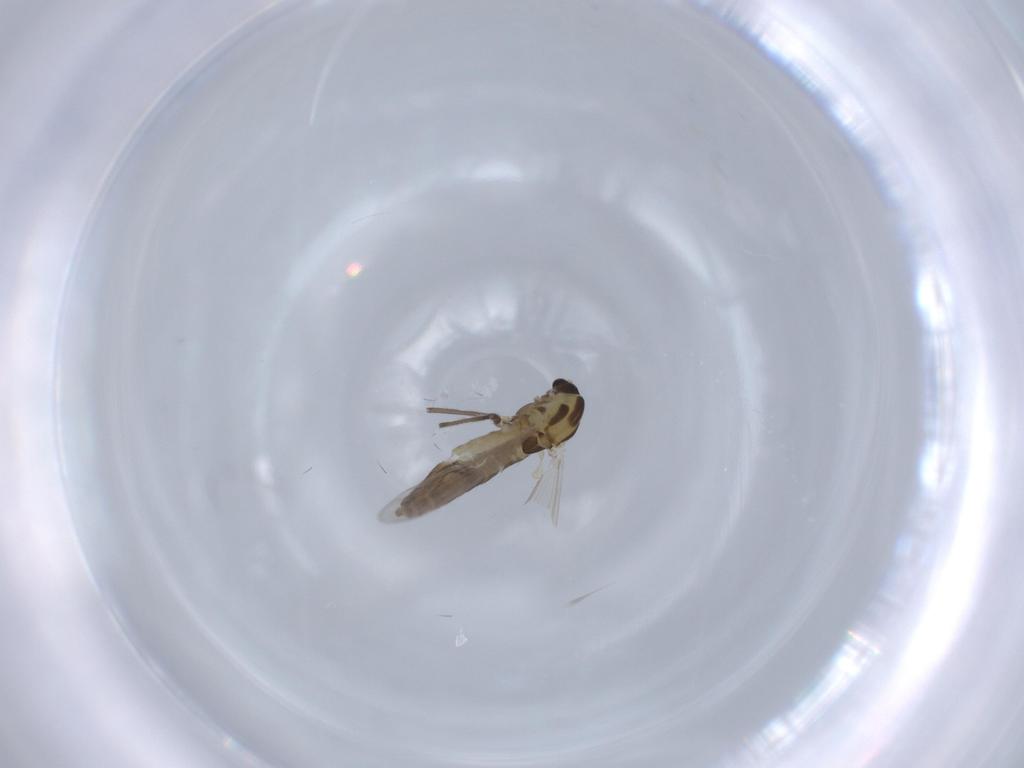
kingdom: Animalia
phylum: Arthropoda
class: Insecta
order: Diptera
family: Chironomidae
